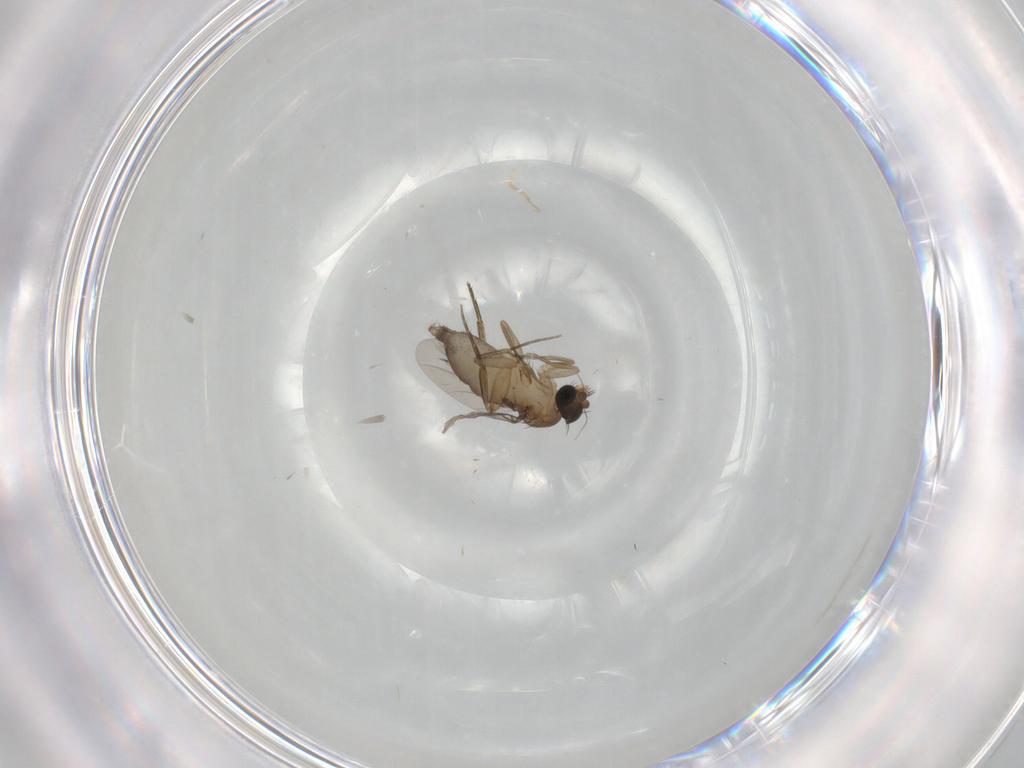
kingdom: Animalia
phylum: Arthropoda
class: Insecta
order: Diptera
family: Phoridae
